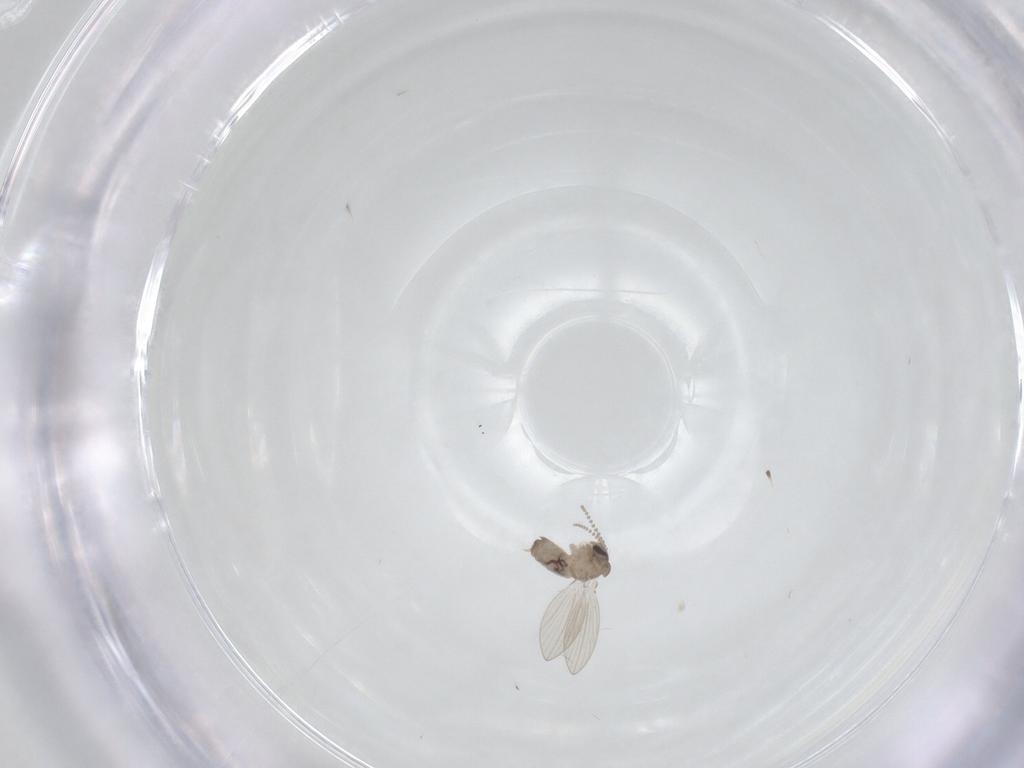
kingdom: Animalia
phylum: Arthropoda
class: Insecta
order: Diptera
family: Psychodidae
